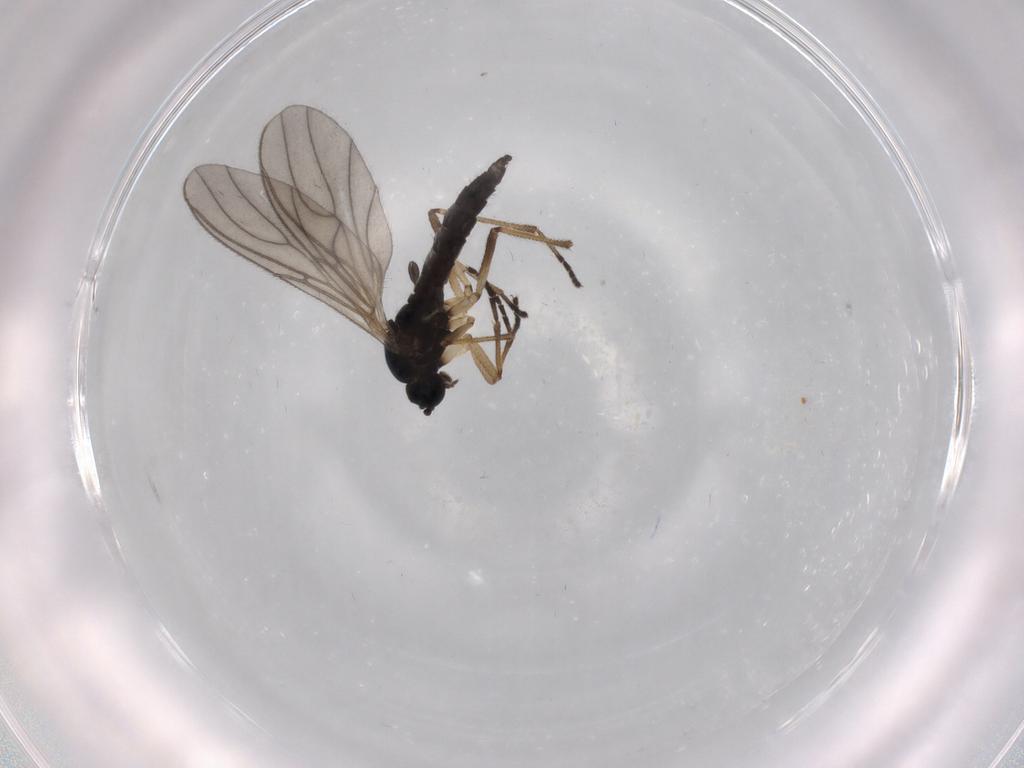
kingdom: Animalia
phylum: Arthropoda
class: Insecta
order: Diptera
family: Sciaridae
